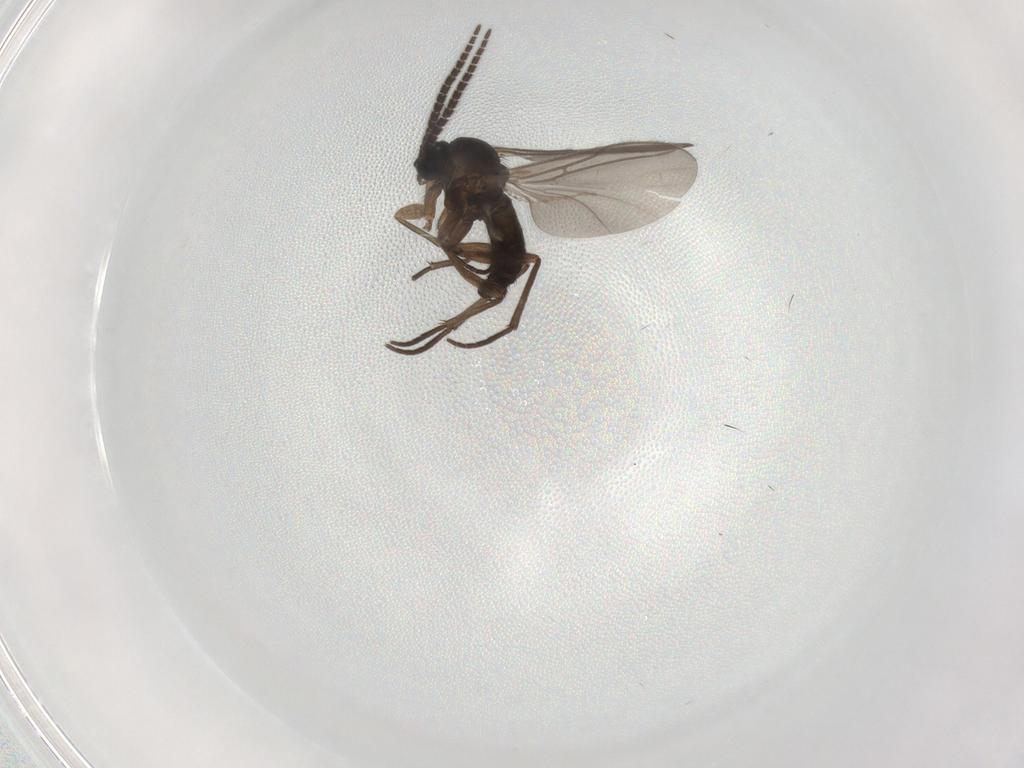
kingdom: Animalia
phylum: Arthropoda
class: Insecta
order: Diptera
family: Sciaridae
